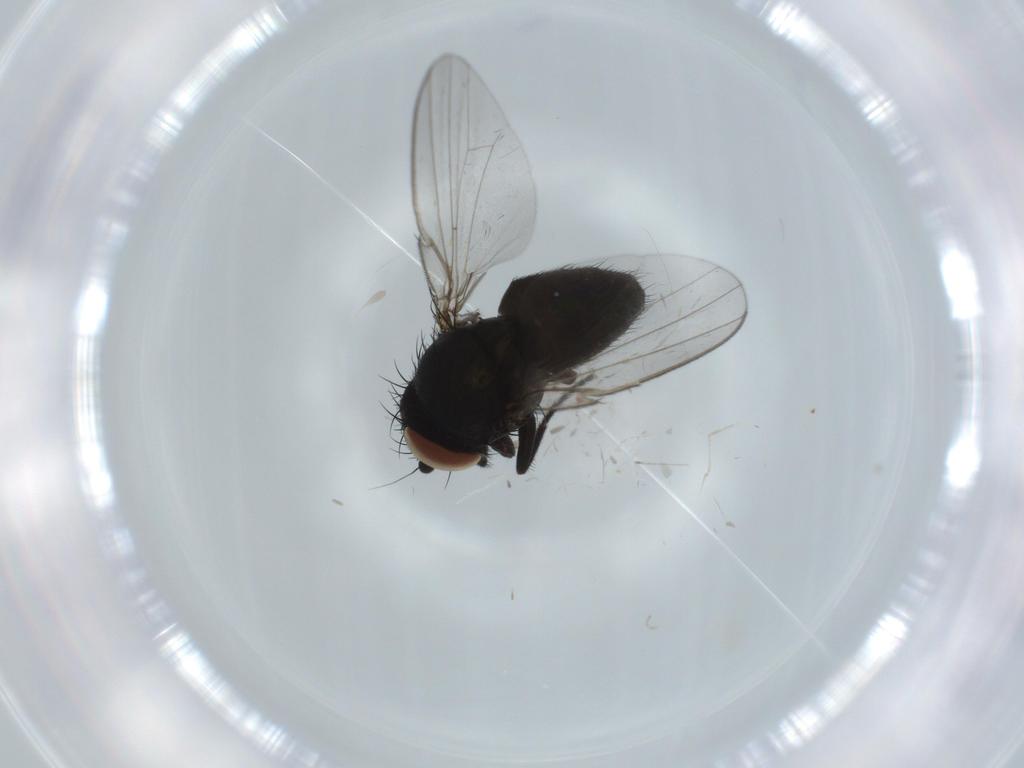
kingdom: Animalia
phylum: Arthropoda
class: Insecta
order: Diptera
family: Milichiidae
